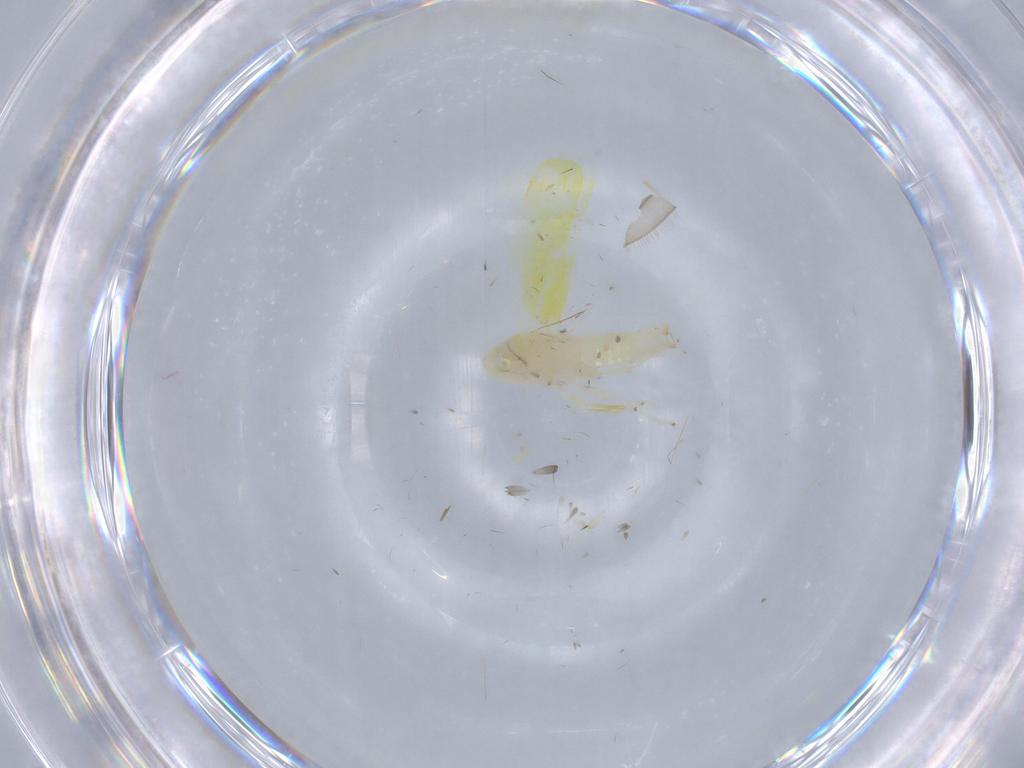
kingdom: Animalia
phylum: Arthropoda
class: Insecta
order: Hemiptera
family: Cicadellidae
